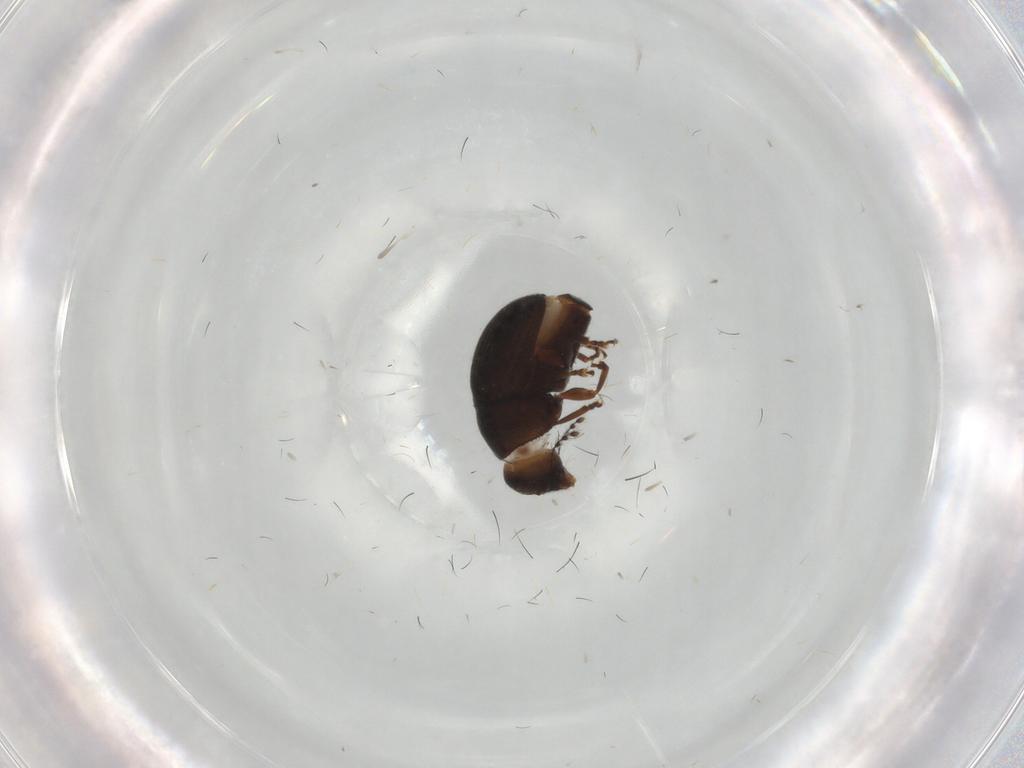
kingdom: Animalia
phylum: Arthropoda
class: Insecta
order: Coleoptera
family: Anthribidae
